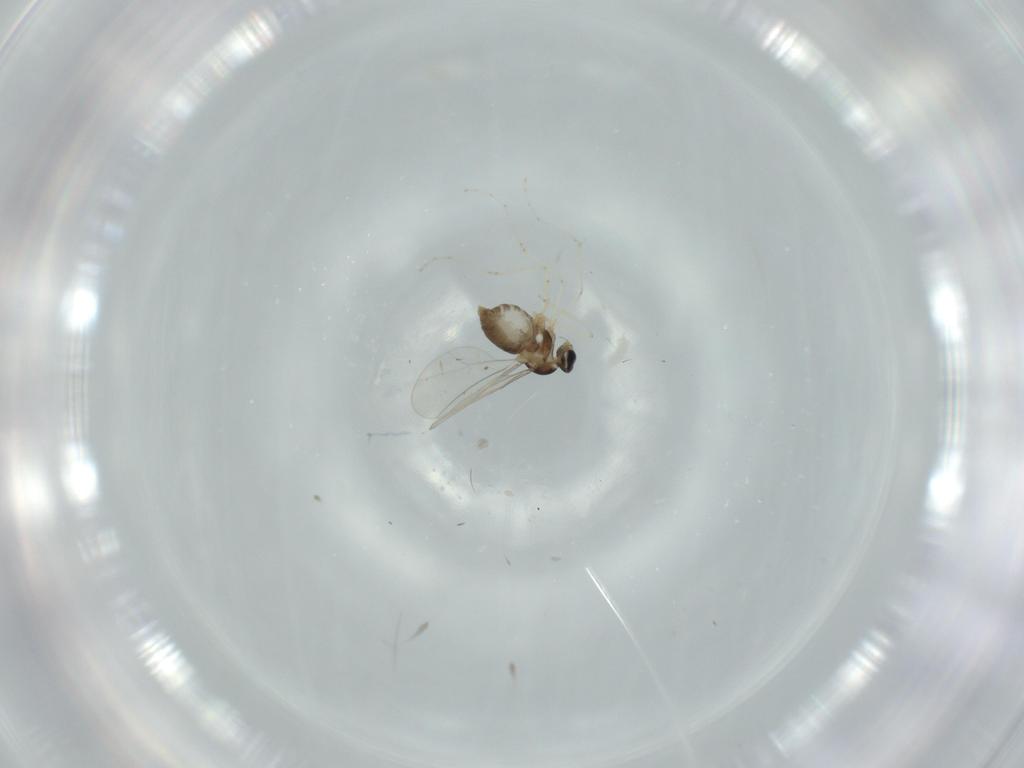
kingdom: Animalia
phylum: Arthropoda
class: Insecta
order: Diptera
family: Cecidomyiidae
